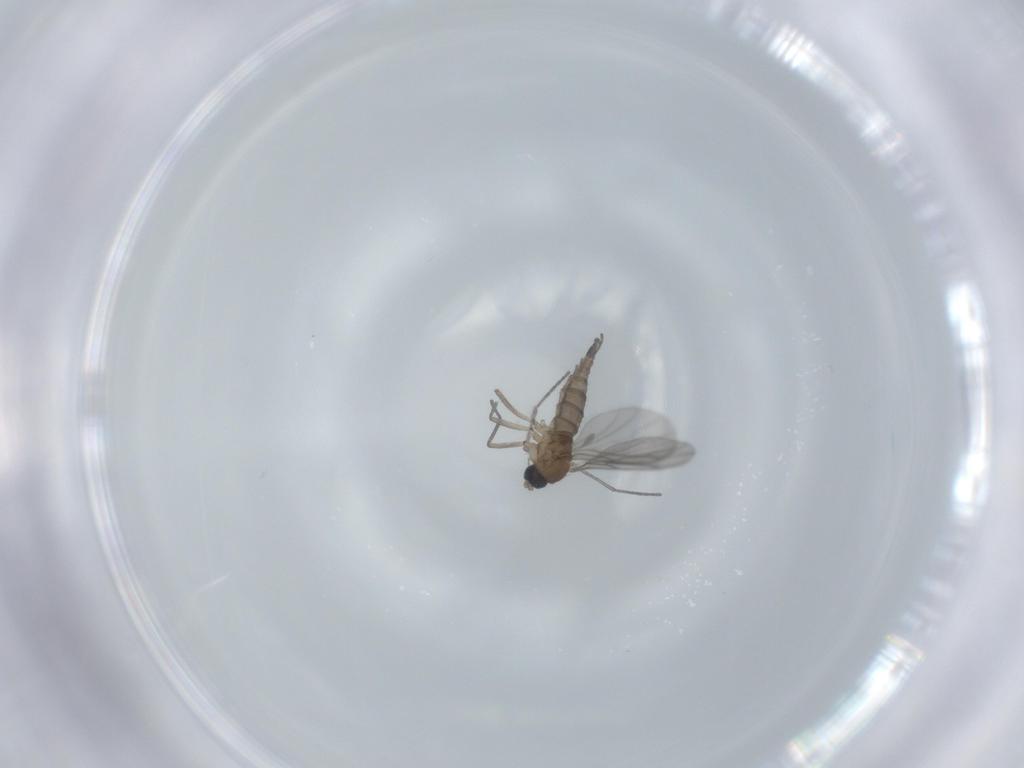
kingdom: Animalia
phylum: Arthropoda
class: Insecta
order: Diptera
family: Sciaridae
